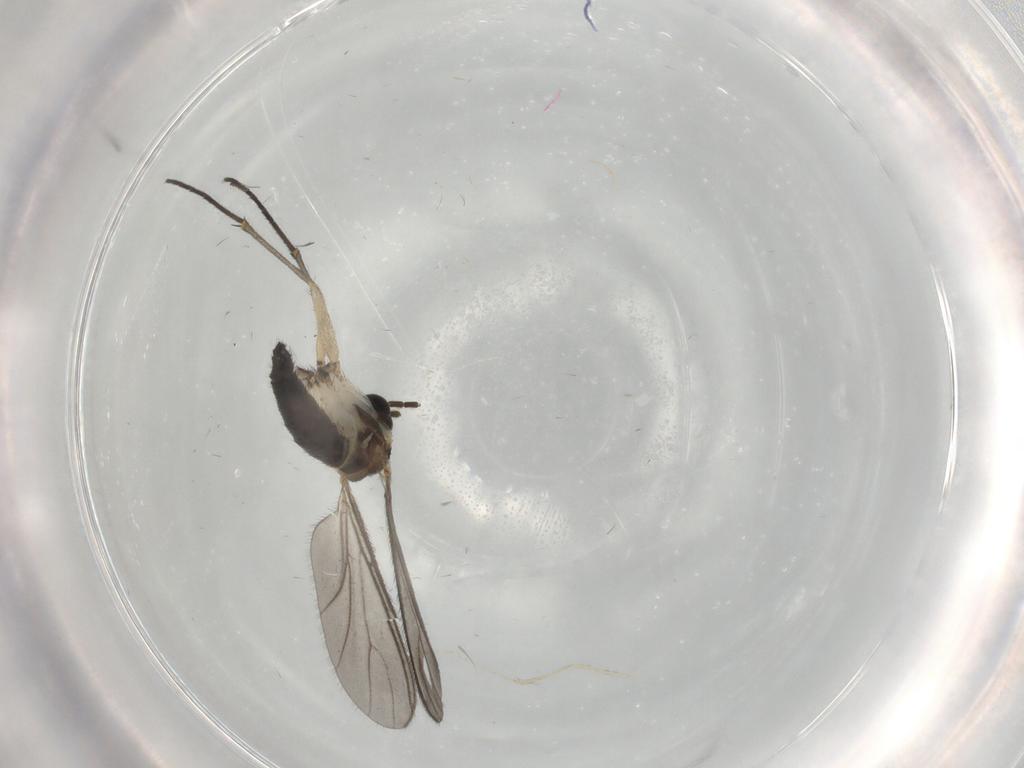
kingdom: Animalia
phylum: Arthropoda
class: Insecta
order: Diptera
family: Sciaridae
